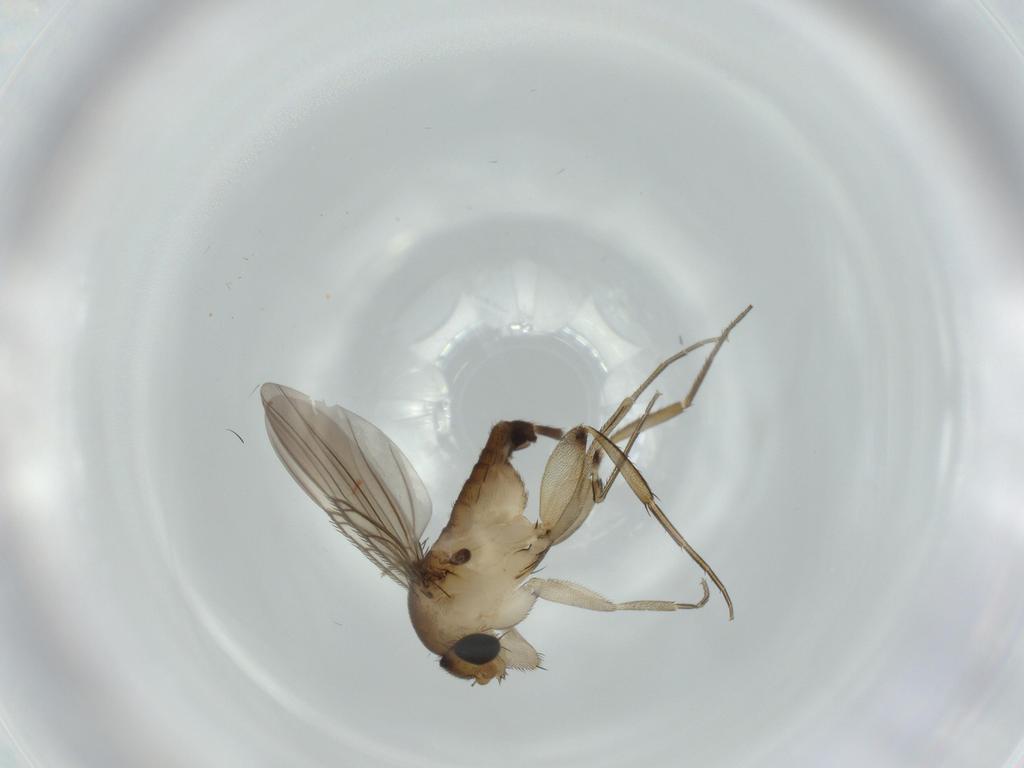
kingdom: Animalia
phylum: Arthropoda
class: Insecta
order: Diptera
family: Phoridae
